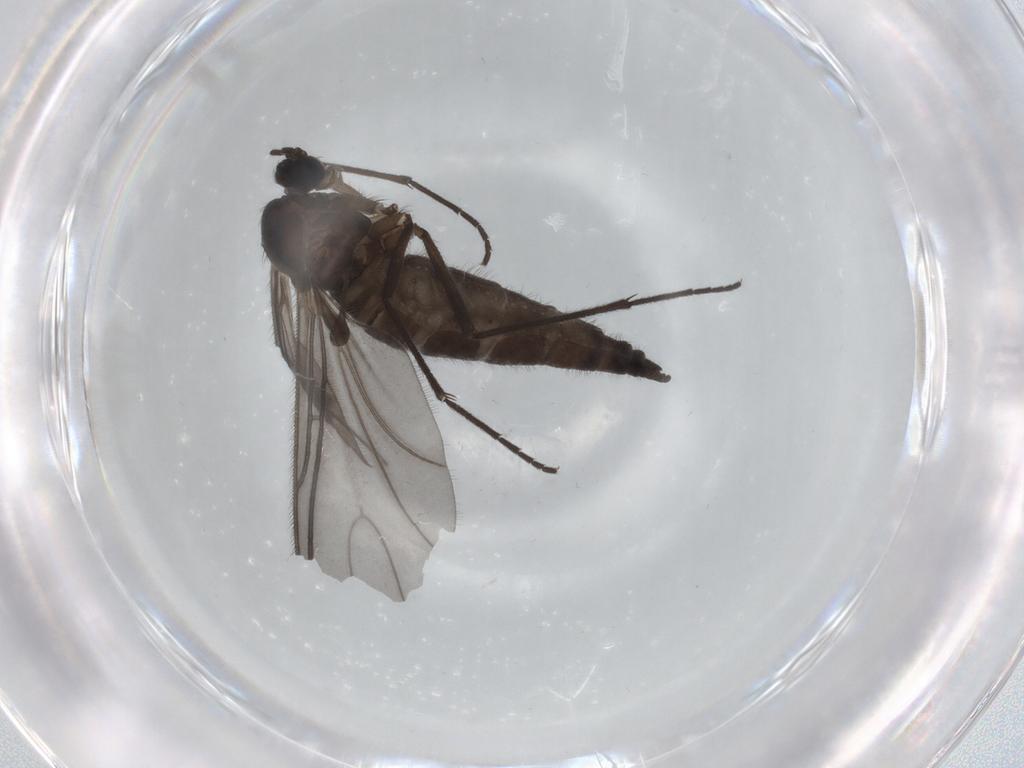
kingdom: Animalia
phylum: Arthropoda
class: Insecta
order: Diptera
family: Sciaridae
